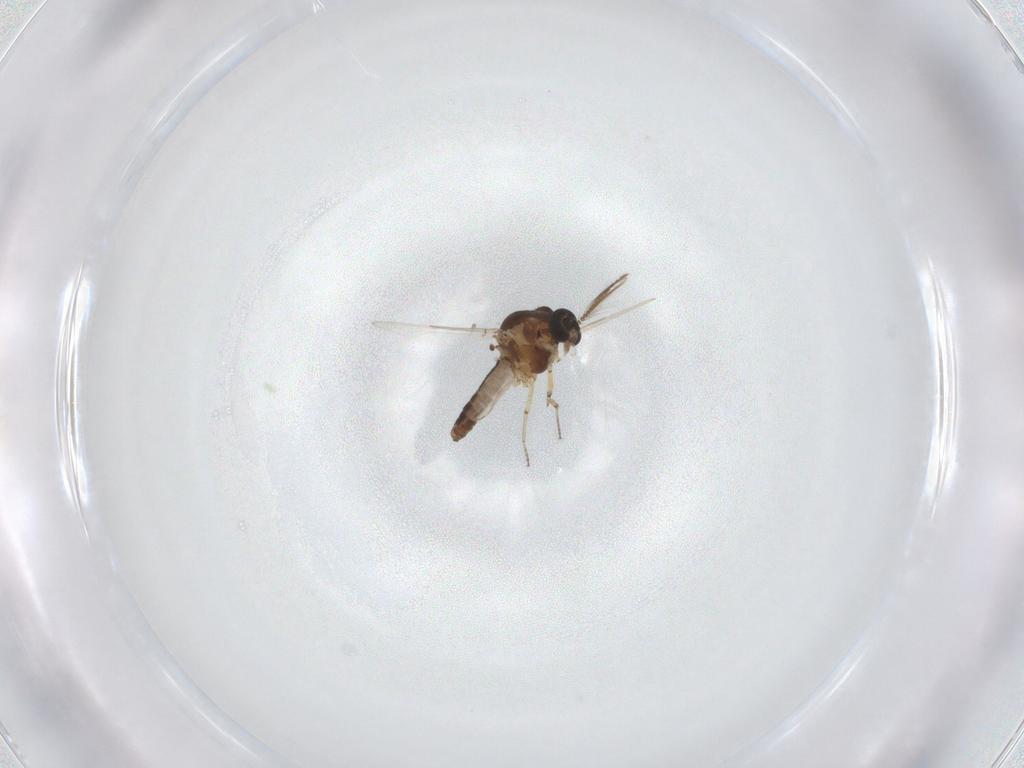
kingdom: Animalia
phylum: Arthropoda
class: Insecta
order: Diptera
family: Ceratopogonidae
